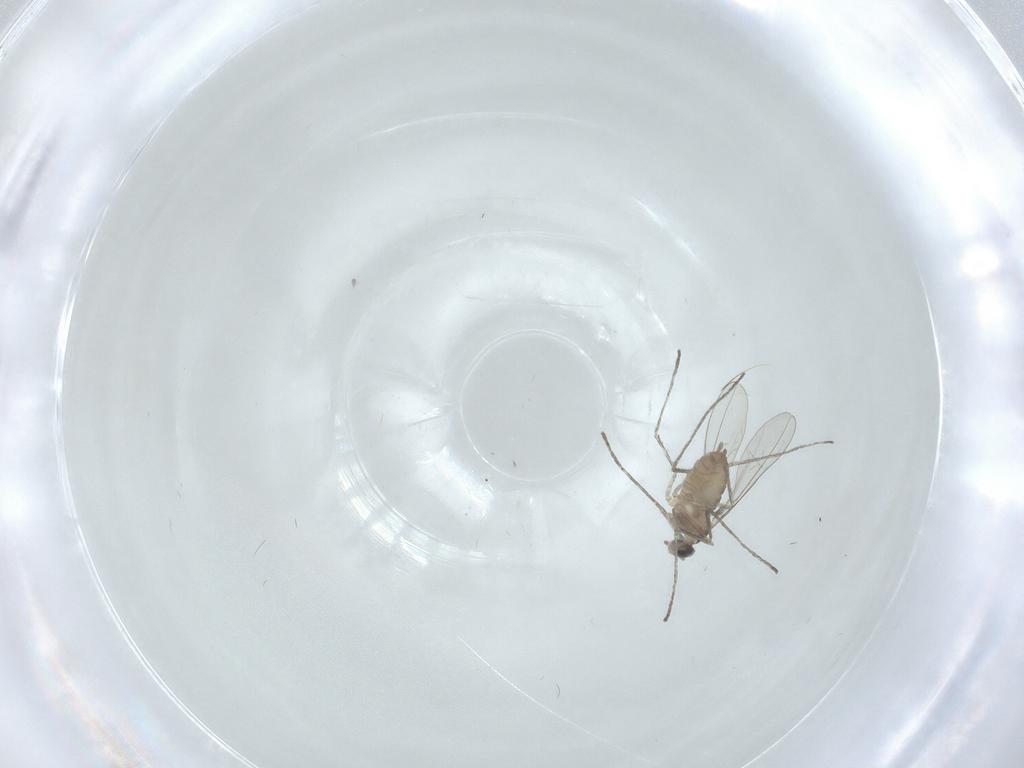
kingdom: Animalia
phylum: Arthropoda
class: Insecta
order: Diptera
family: Cecidomyiidae
